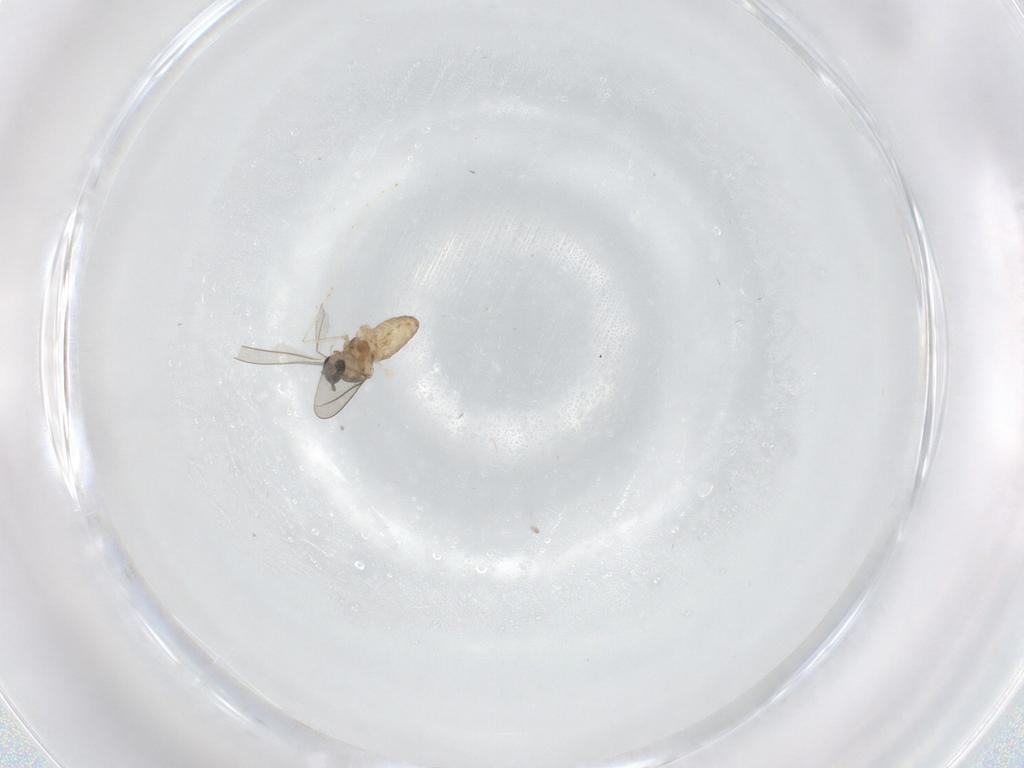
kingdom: Animalia
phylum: Arthropoda
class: Insecta
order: Diptera
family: Cecidomyiidae
